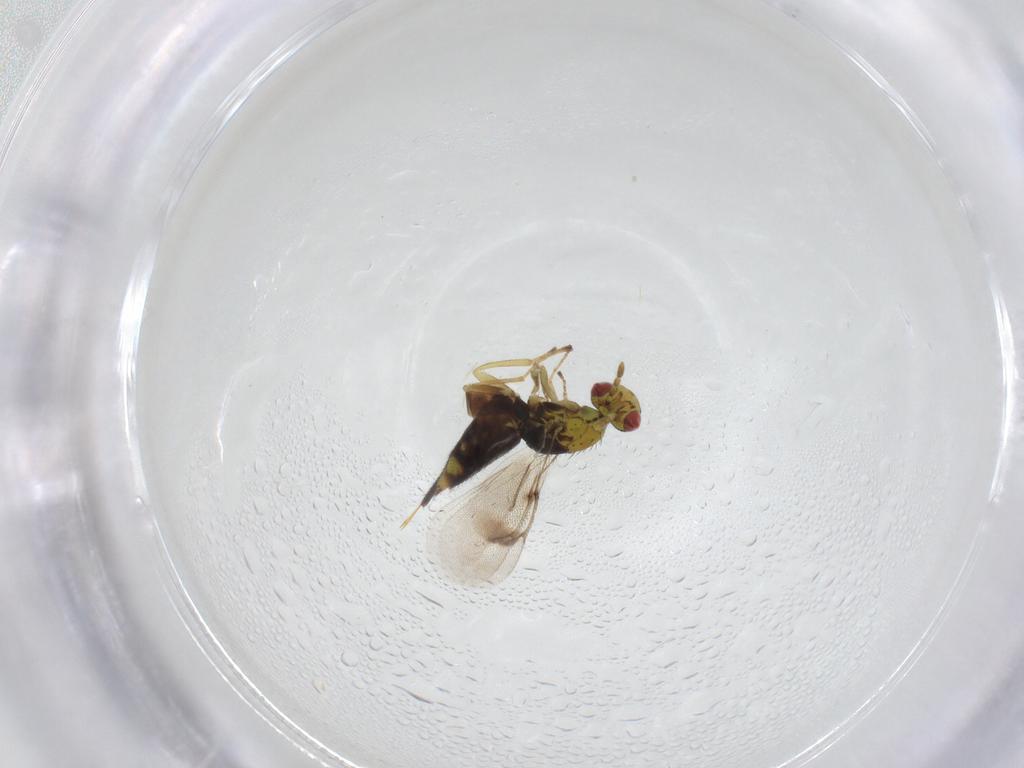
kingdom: Animalia
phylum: Arthropoda
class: Insecta
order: Hymenoptera
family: Eulophidae
